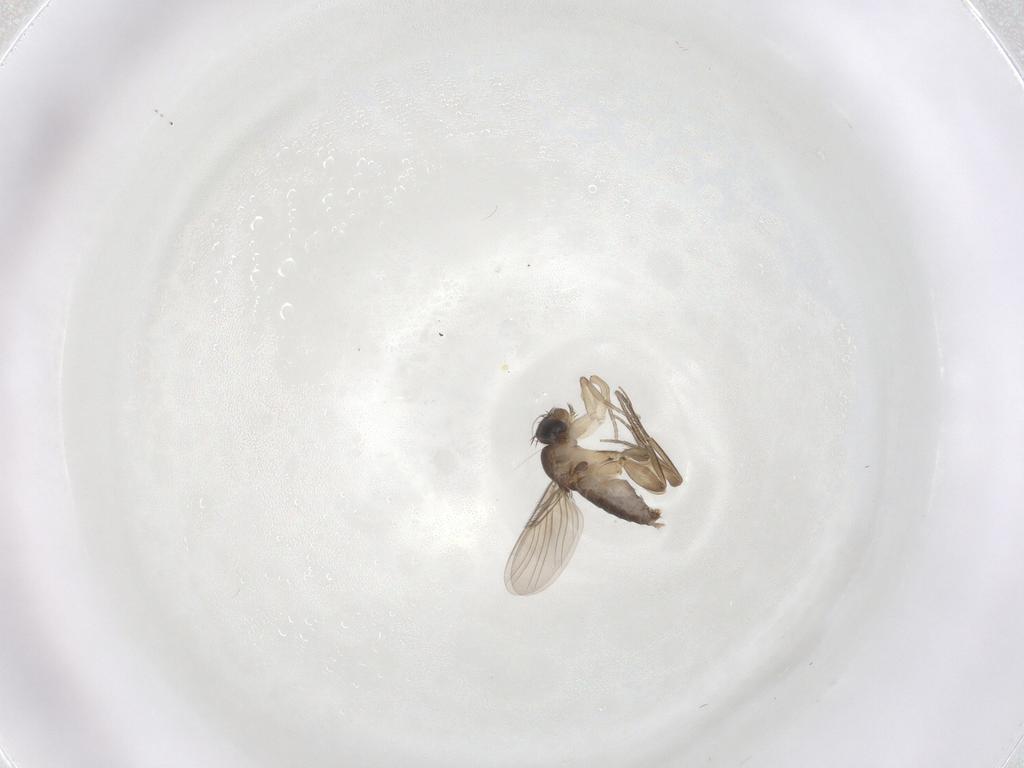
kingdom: Animalia
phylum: Arthropoda
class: Insecta
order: Diptera
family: Phoridae
